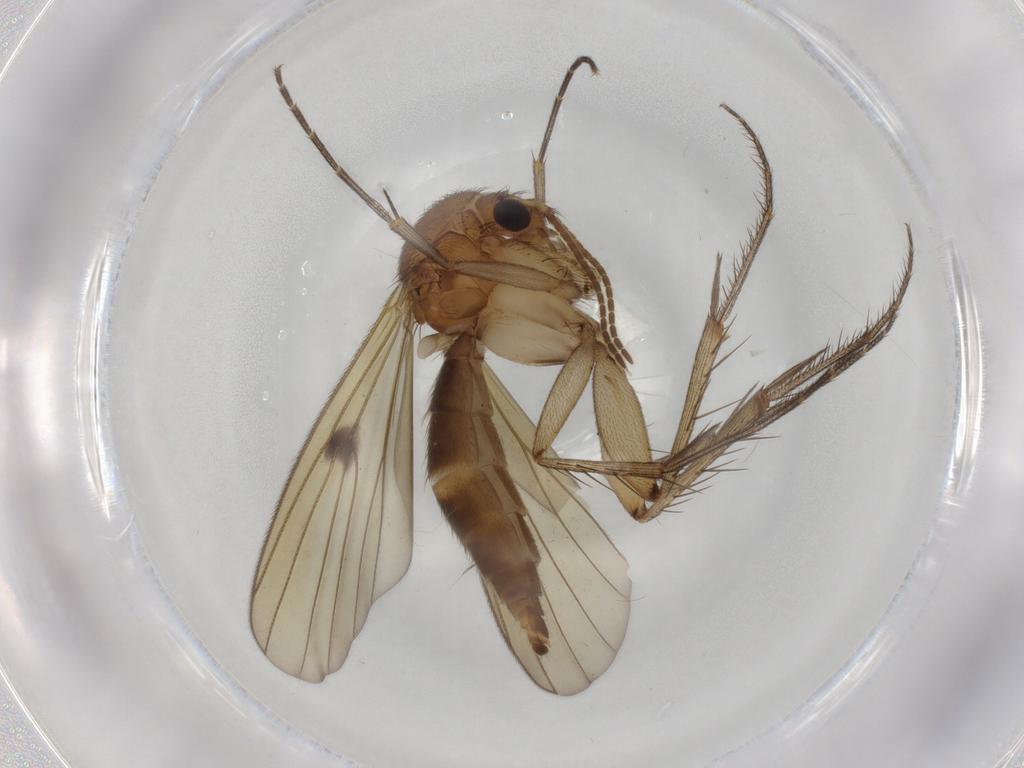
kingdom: Animalia
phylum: Arthropoda
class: Insecta
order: Diptera
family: Mycetophilidae
